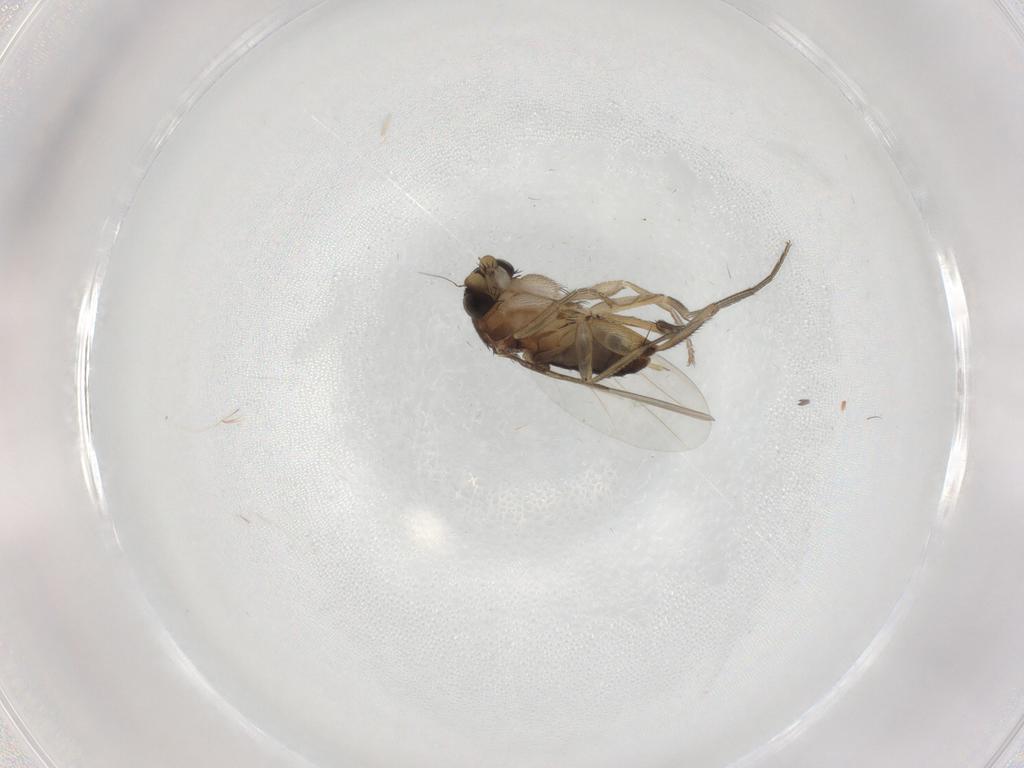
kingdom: Animalia
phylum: Arthropoda
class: Insecta
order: Diptera
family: Phoridae
